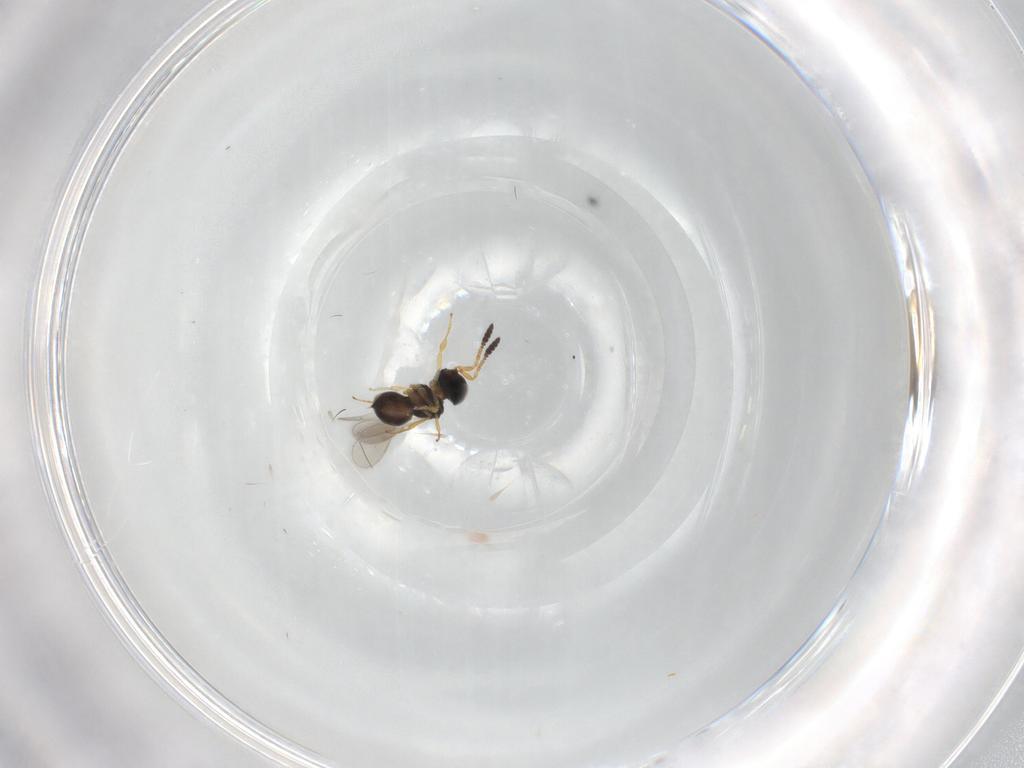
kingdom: Animalia
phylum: Arthropoda
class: Insecta
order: Hymenoptera
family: Scelionidae
